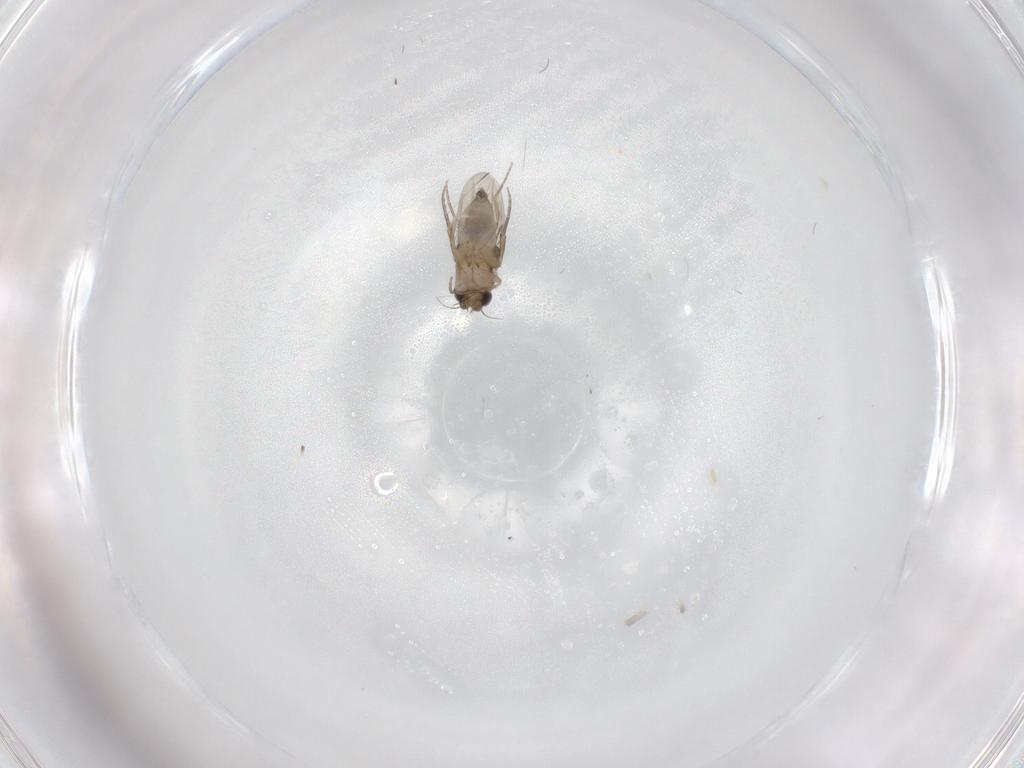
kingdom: Animalia
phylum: Arthropoda
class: Insecta
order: Diptera
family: Phoridae
